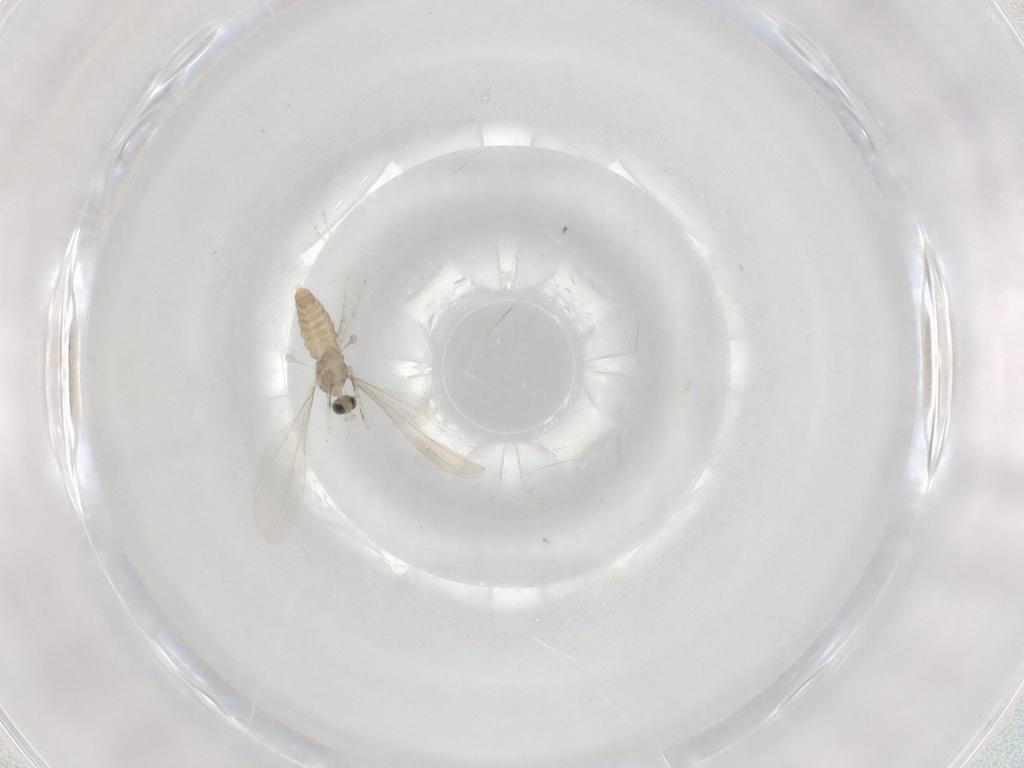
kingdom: Animalia
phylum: Arthropoda
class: Insecta
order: Diptera
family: Cecidomyiidae
